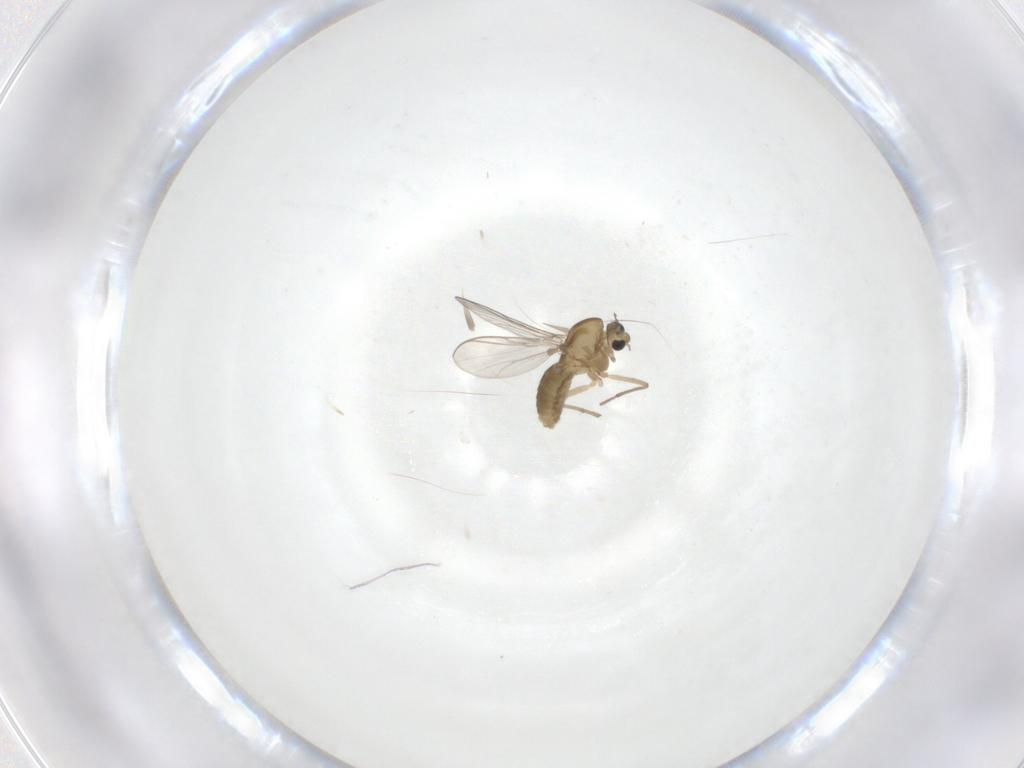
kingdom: Animalia
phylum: Arthropoda
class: Insecta
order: Diptera
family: Chironomidae
